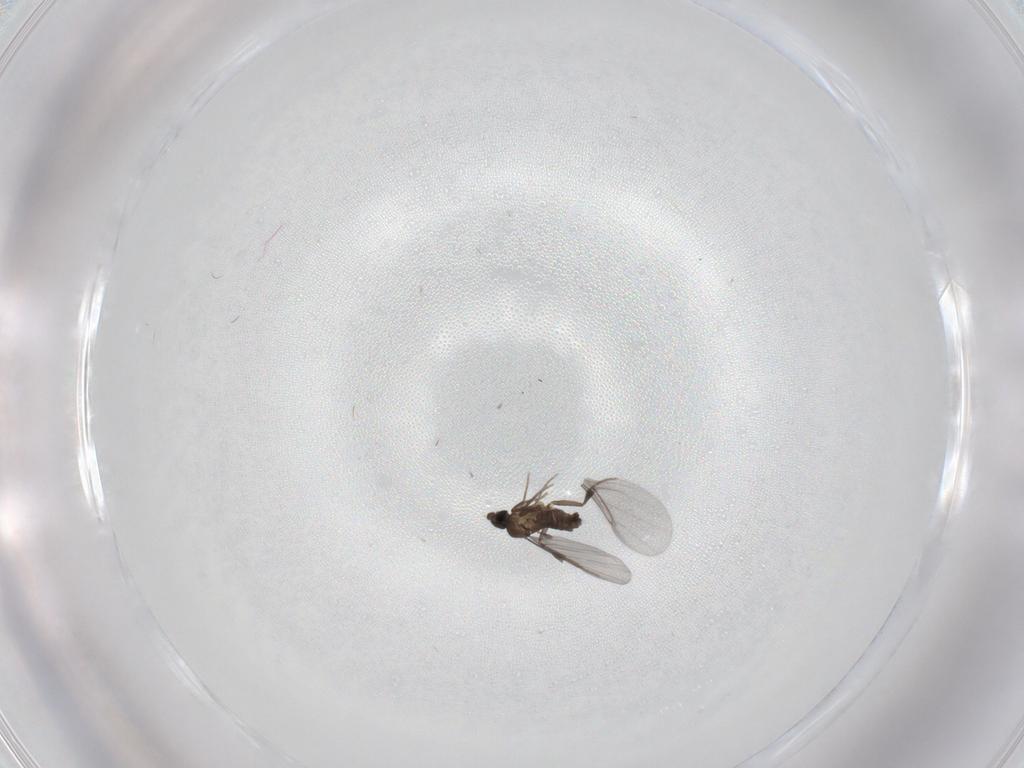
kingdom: Animalia
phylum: Arthropoda
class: Insecta
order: Diptera
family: Phoridae
